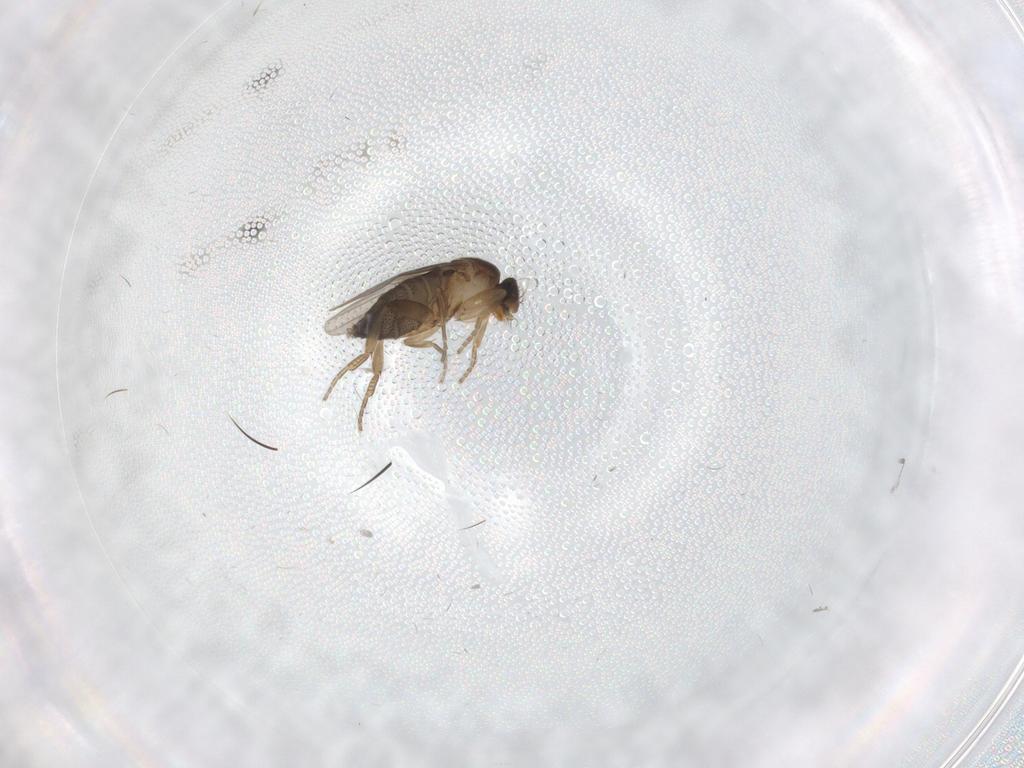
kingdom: Animalia
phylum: Arthropoda
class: Insecta
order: Diptera
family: Phoridae
